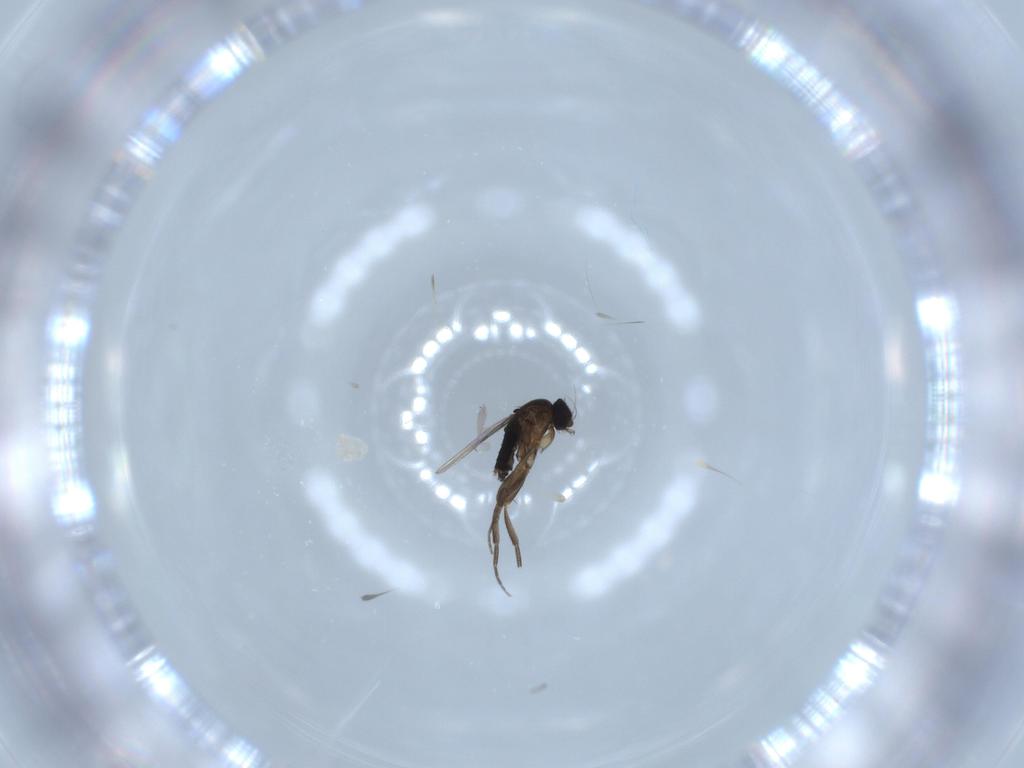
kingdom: Animalia
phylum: Arthropoda
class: Insecta
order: Diptera
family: Phoridae
